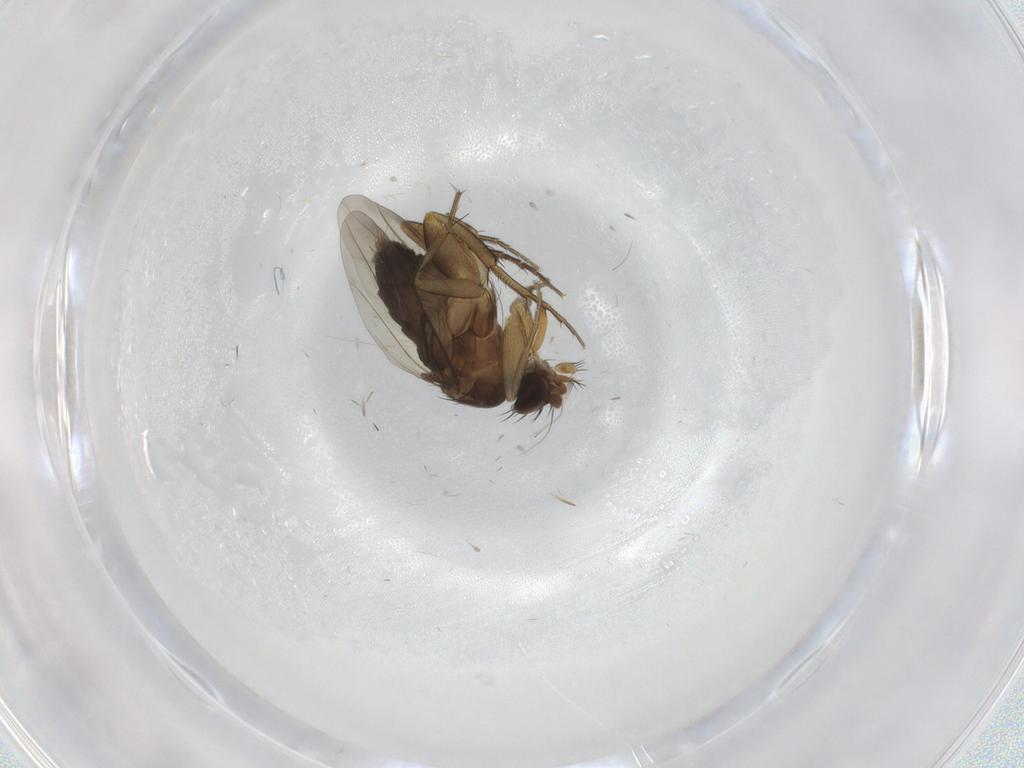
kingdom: Animalia
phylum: Arthropoda
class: Insecta
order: Diptera
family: Phoridae
